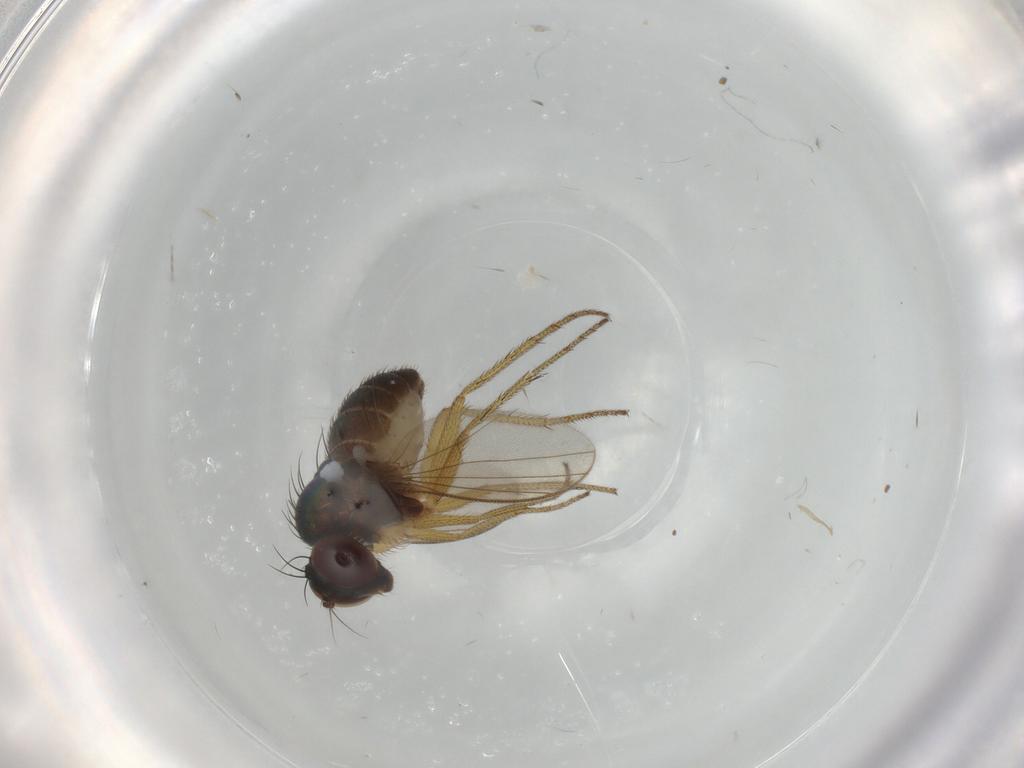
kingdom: Animalia
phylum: Arthropoda
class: Insecta
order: Diptera
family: Dolichopodidae
